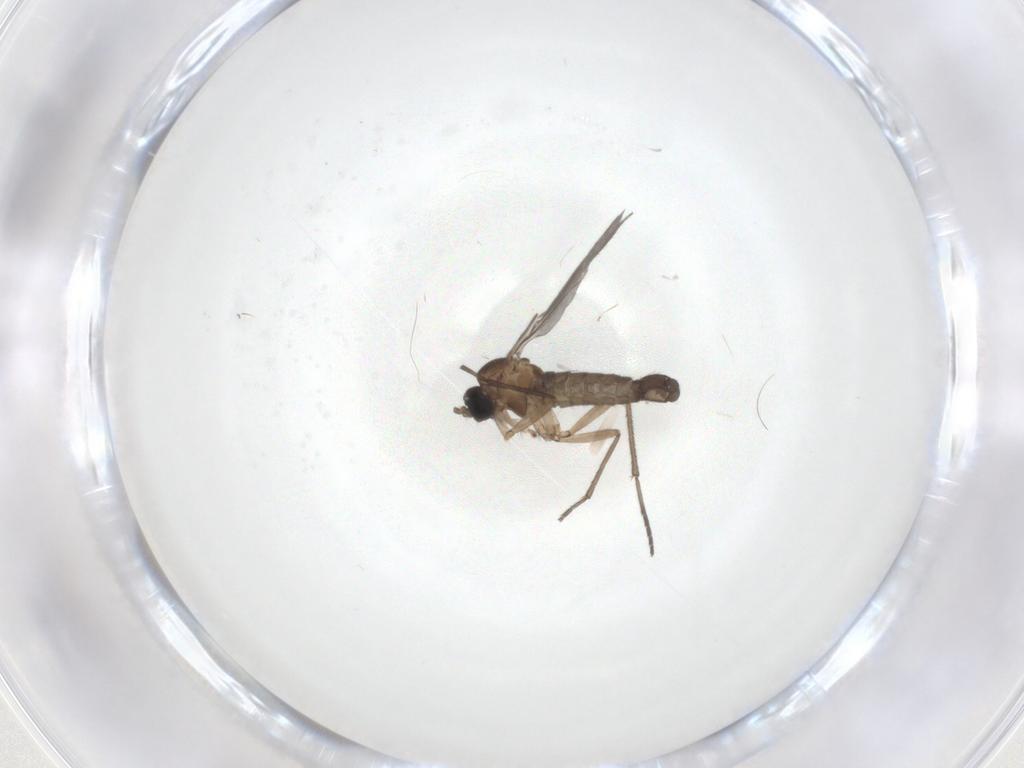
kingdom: Animalia
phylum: Arthropoda
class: Insecta
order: Diptera
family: Sciaridae
